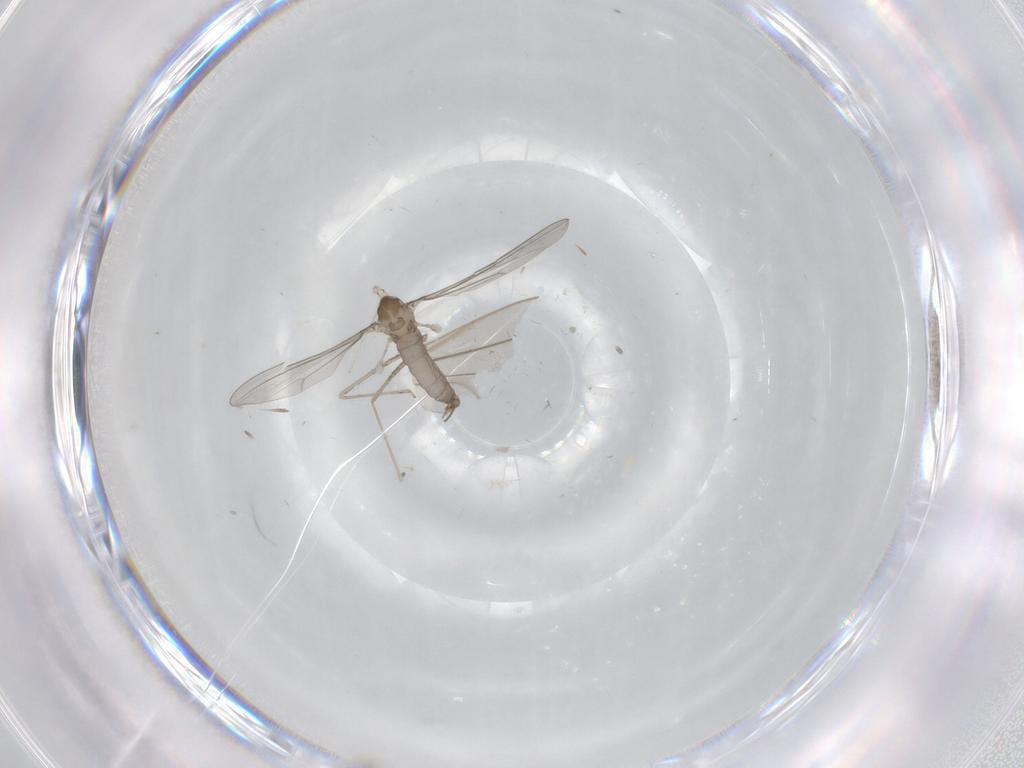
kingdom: Animalia
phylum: Arthropoda
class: Insecta
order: Diptera
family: Cecidomyiidae
